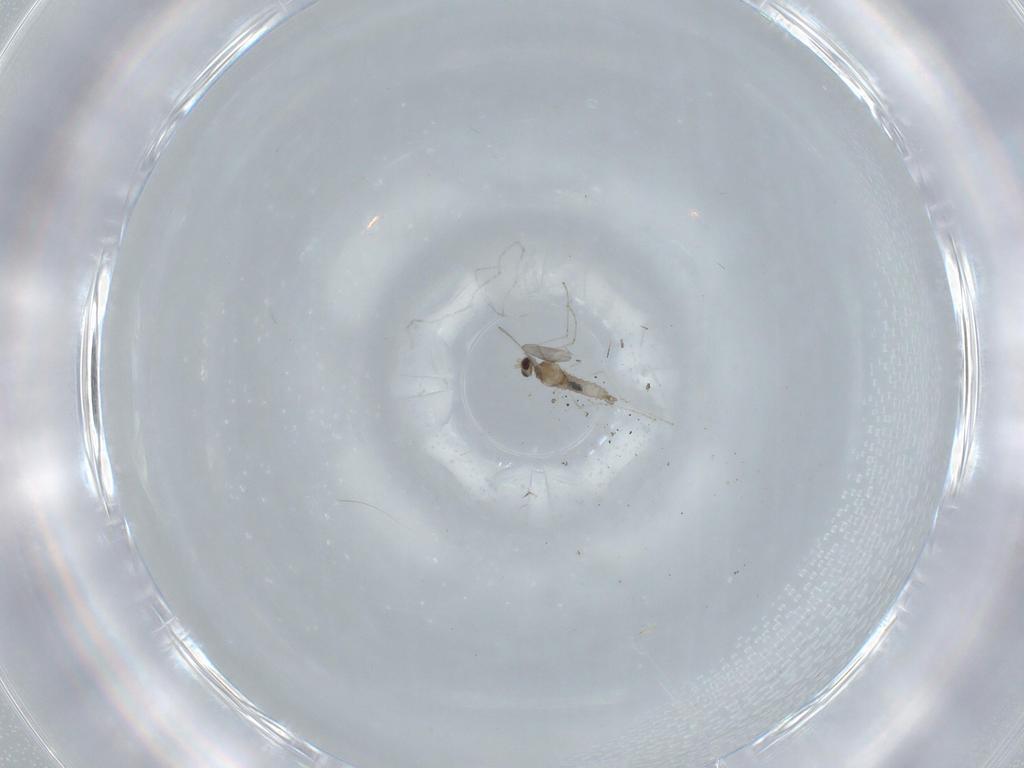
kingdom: Animalia
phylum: Arthropoda
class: Insecta
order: Diptera
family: Cecidomyiidae
